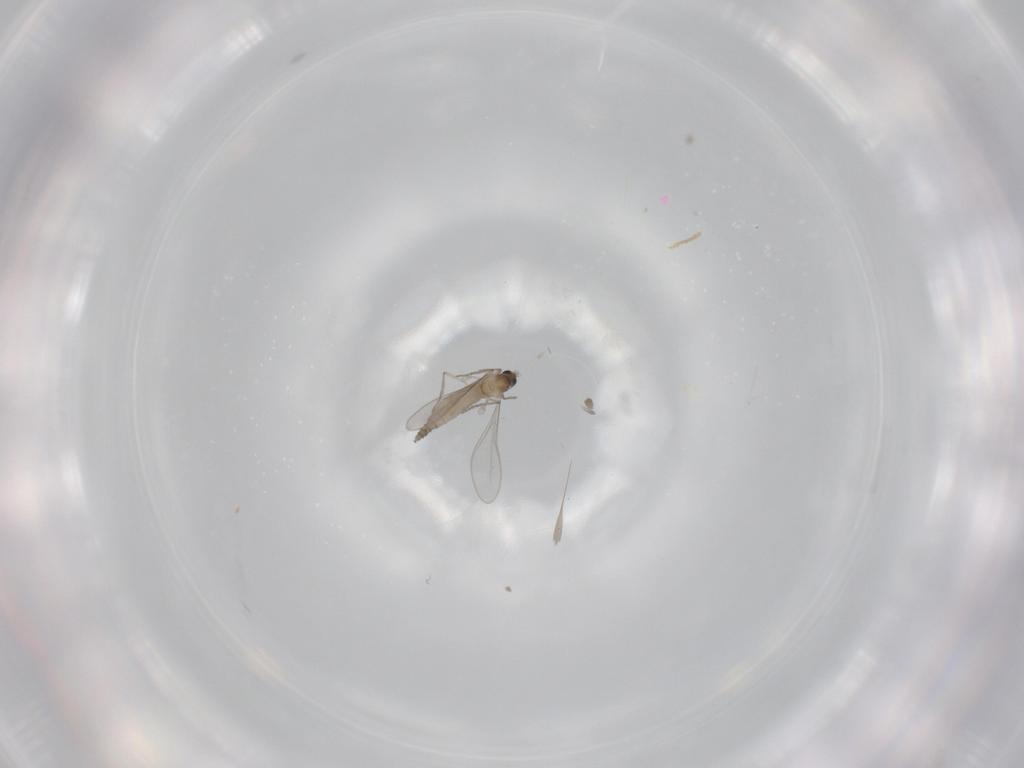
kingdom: Animalia
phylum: Arthropoda
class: Insecta
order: Diptera
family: Cecidomyiidae
